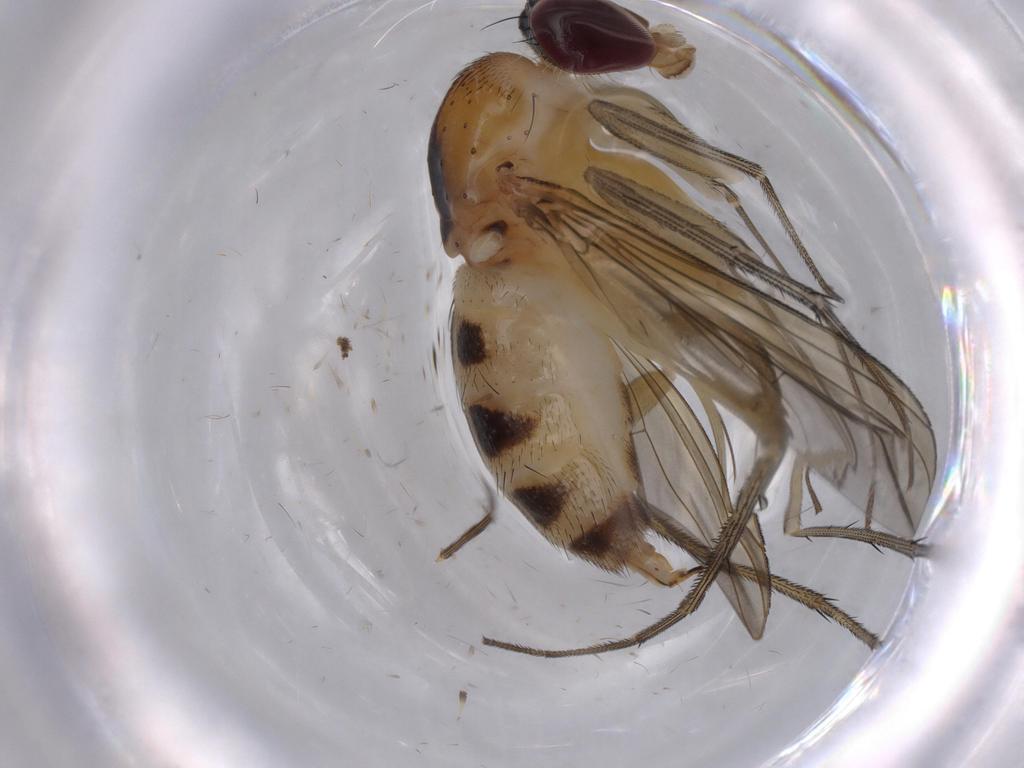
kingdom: Animalia
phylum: Arthropoda
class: Insecta
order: Diptera
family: Phoridae
